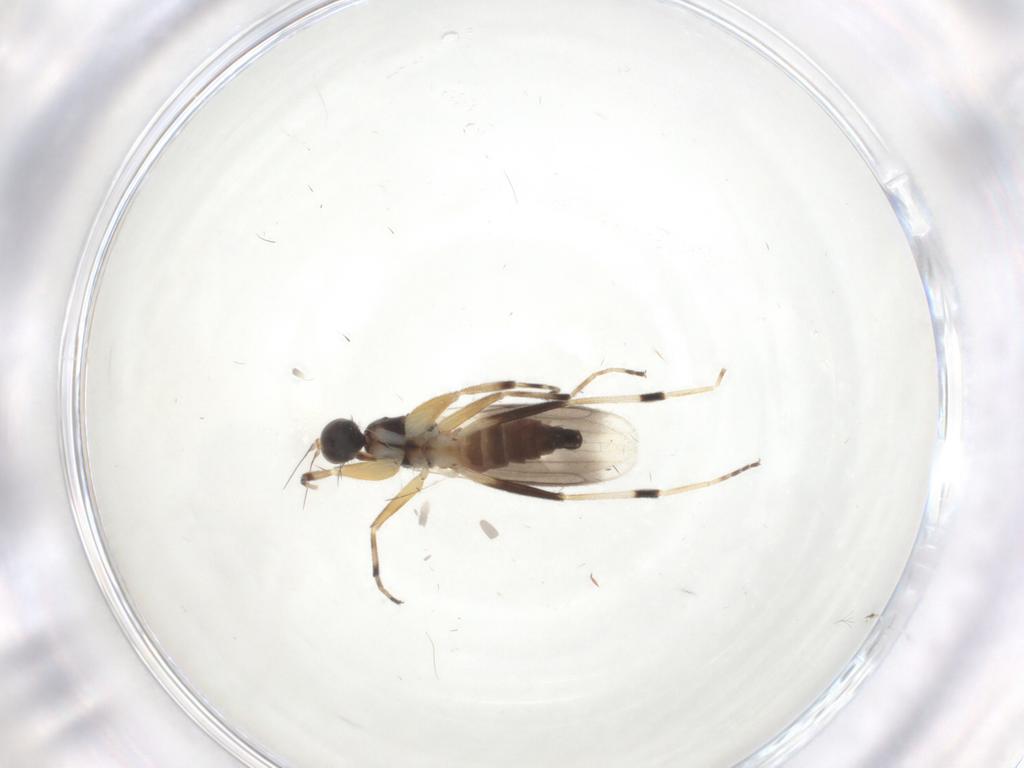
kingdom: Animalia
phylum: Arthropoda
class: Insecta
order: Diptera
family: Hybotidae
